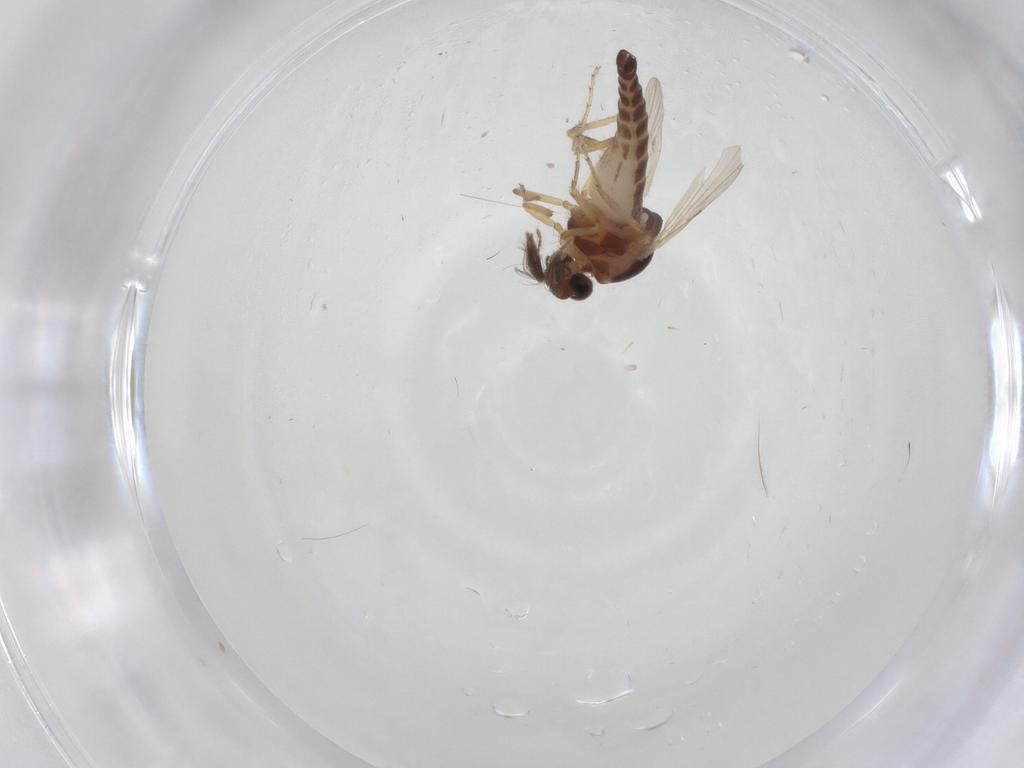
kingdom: Animalia
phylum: Arthropoda
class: Insecta
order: Diptera
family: Ceratopogonidae
